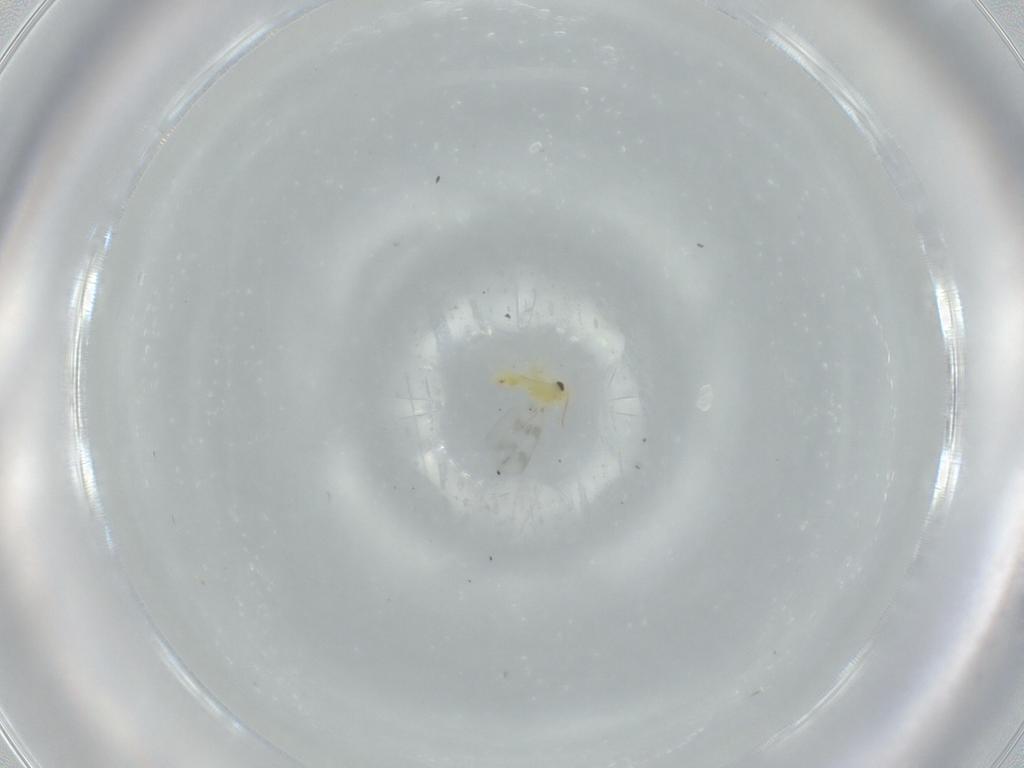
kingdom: Animalia
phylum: Arthropoda
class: Insecta
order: Hemiptera
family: Aleyrodidae
